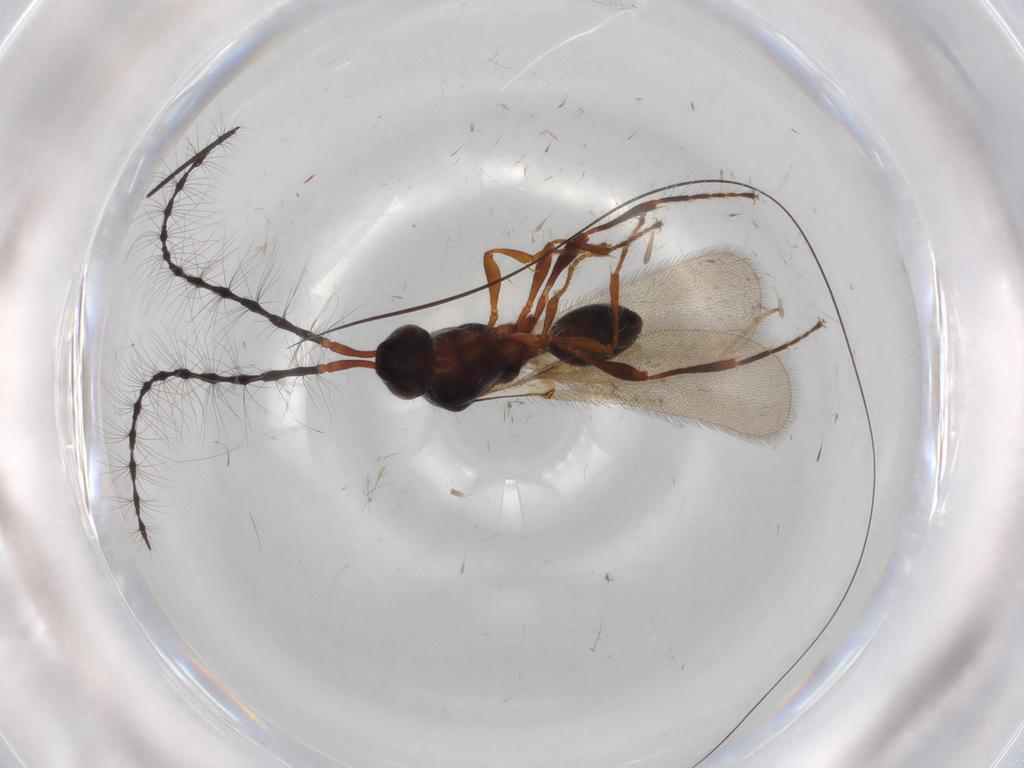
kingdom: Animalia
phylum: Arthropoda
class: Insecta
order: Hymenoptera
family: Diapriidae
